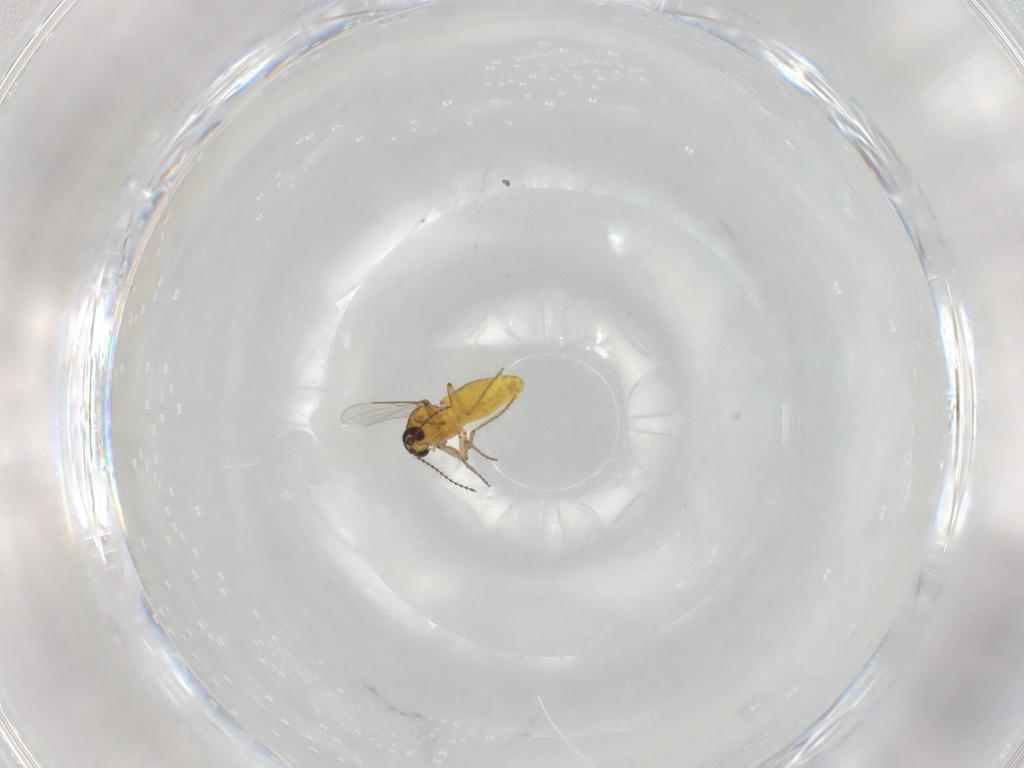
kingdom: Animalia
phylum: Arthropoda
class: Insecta
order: Diptera
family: Ceratopogonidae
